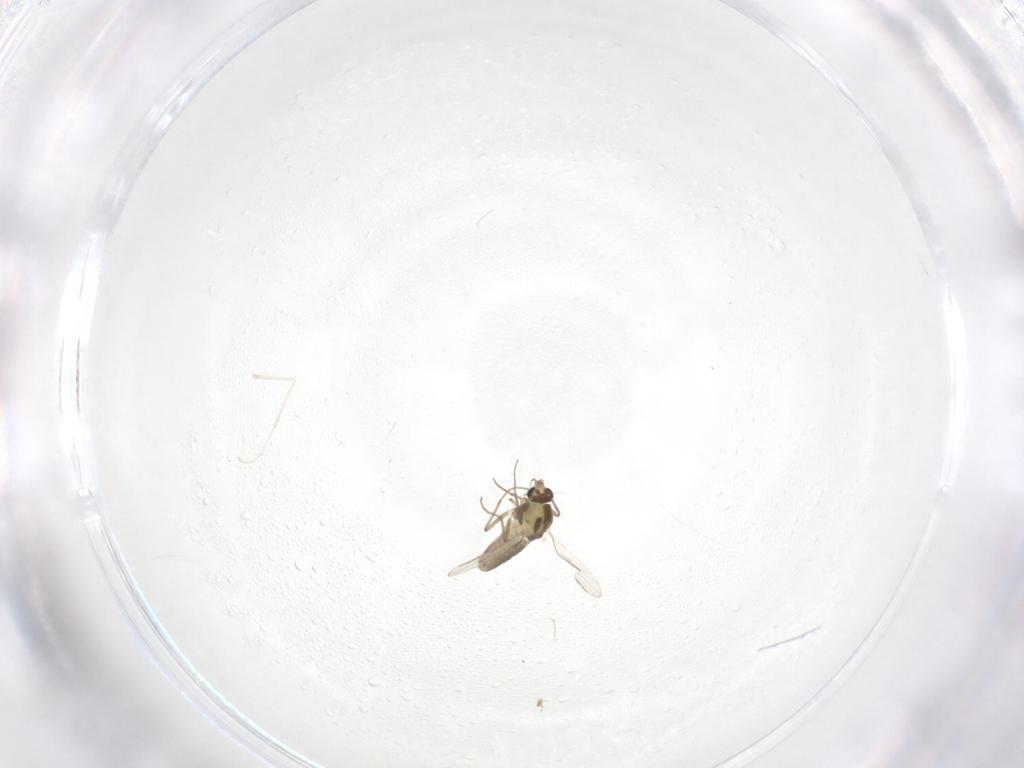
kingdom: Animalia
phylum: Arthropoda
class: Insecta
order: Diptera
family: Chironomidae
